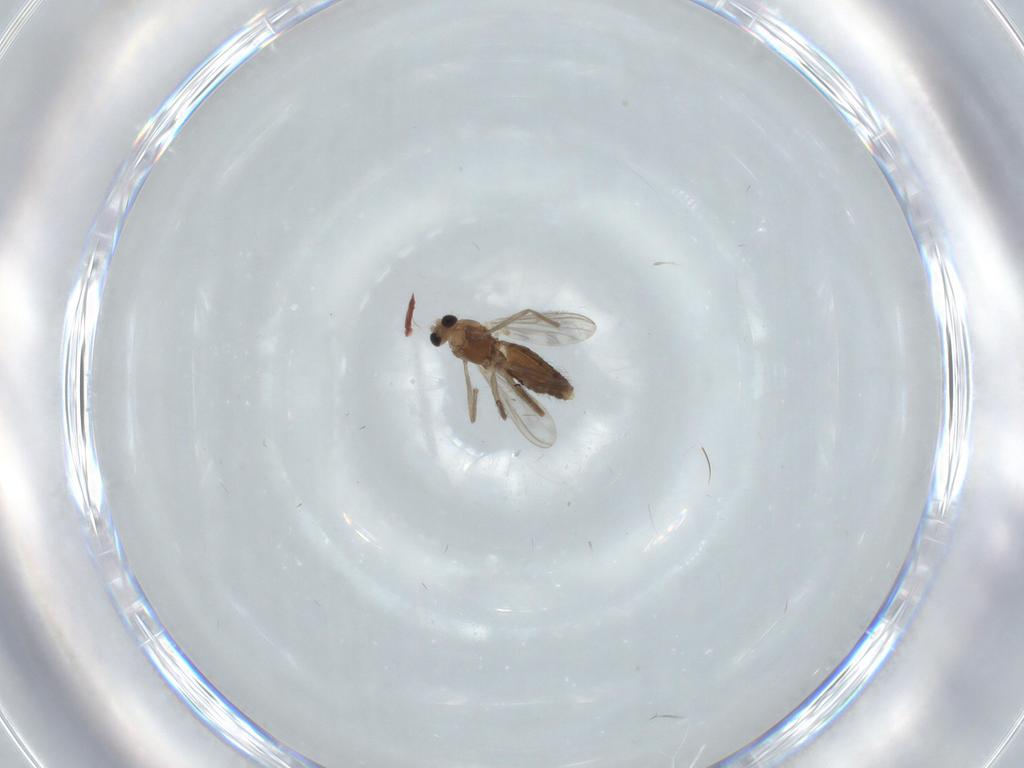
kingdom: Animalia
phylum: Arthropoda
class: Insecta
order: Diptera
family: Chironomidae
